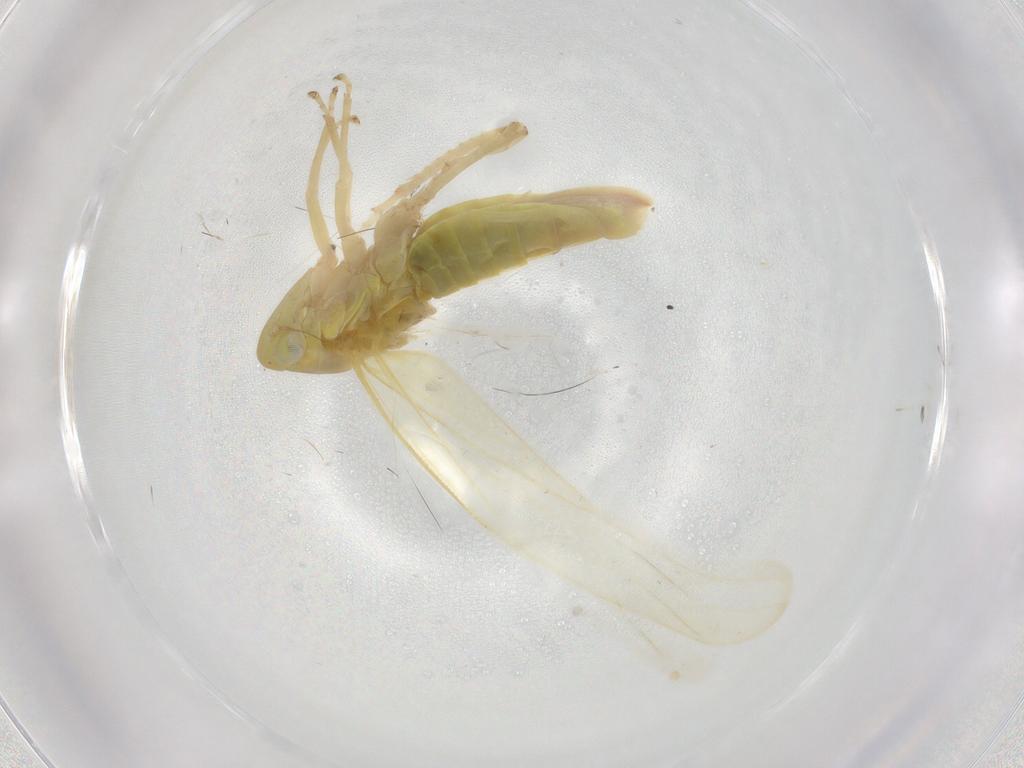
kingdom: Animalia
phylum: Arthropoda
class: Insecta
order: Hemiptera
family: Cicadellidae
